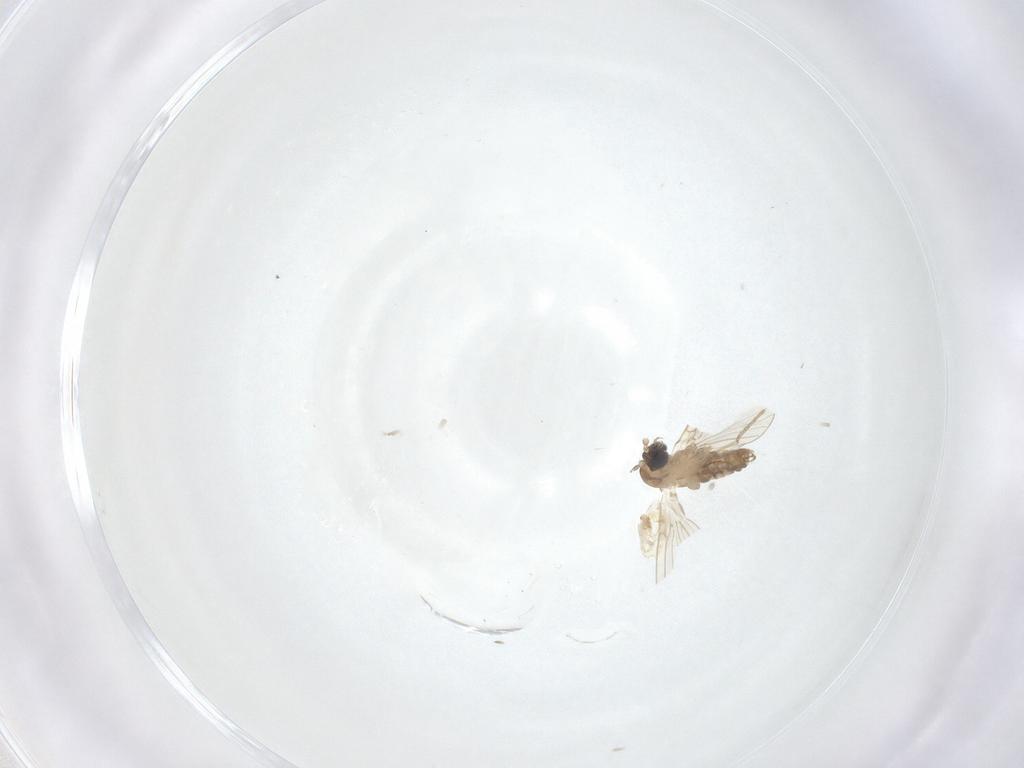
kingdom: Animalia
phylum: Arthropoda
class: Insecta
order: Diptera
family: Psychodidae
